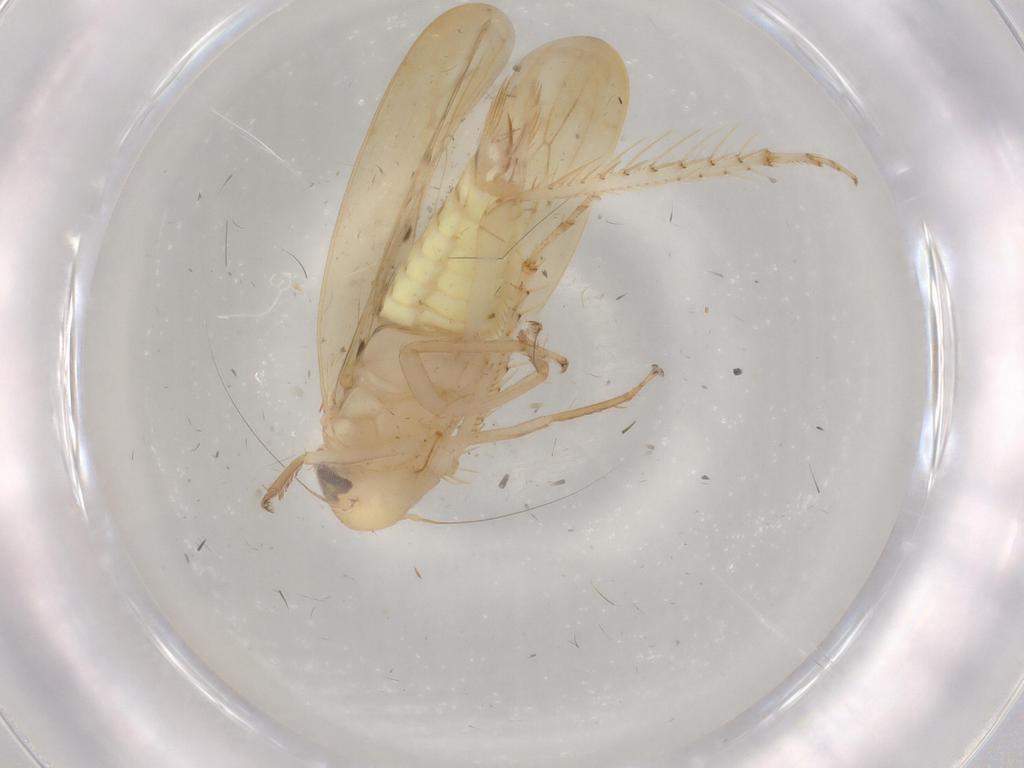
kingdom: Animalia
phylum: Arthropoda
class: Insecta
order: Hemiptera
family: Cicadellidae
